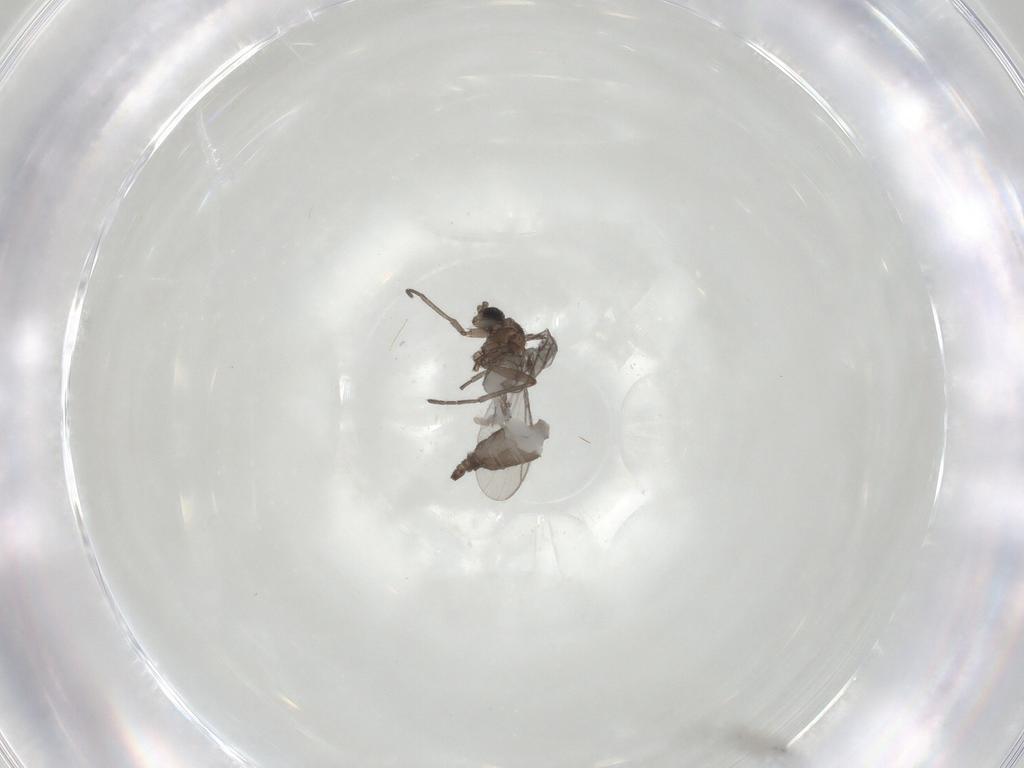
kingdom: Animalia
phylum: Arthropoda
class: Insecta
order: Diptera
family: Sciaridae
